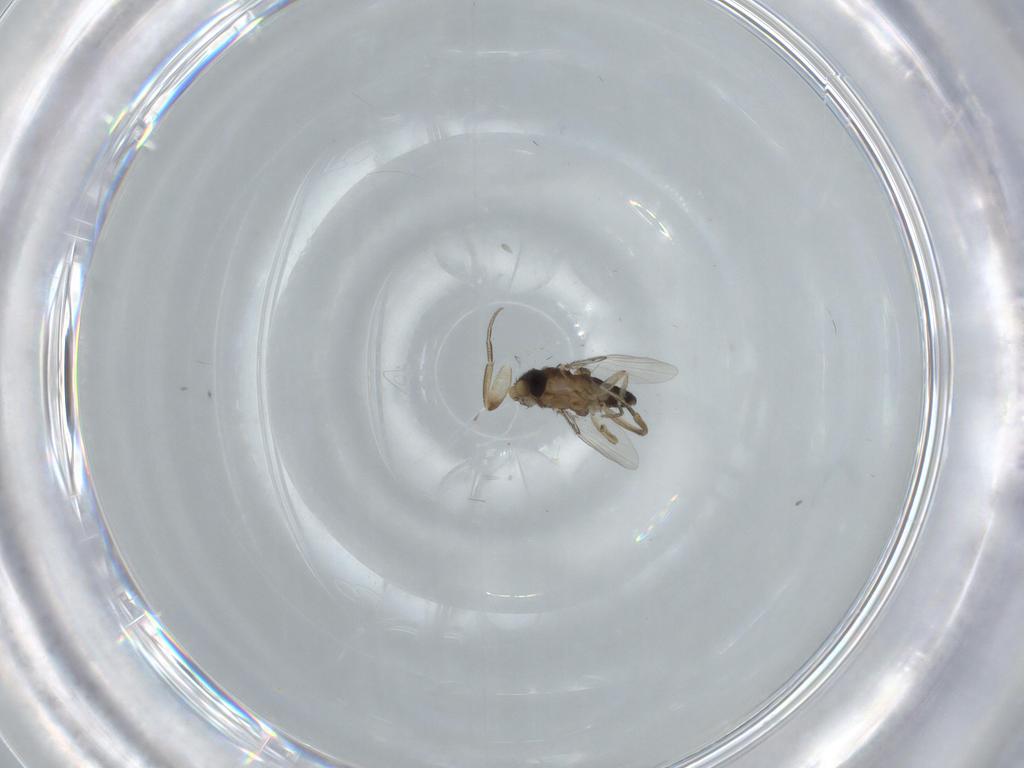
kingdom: Animalia
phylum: Arthropoda
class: Insecta
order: Diptera
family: Phoridae
